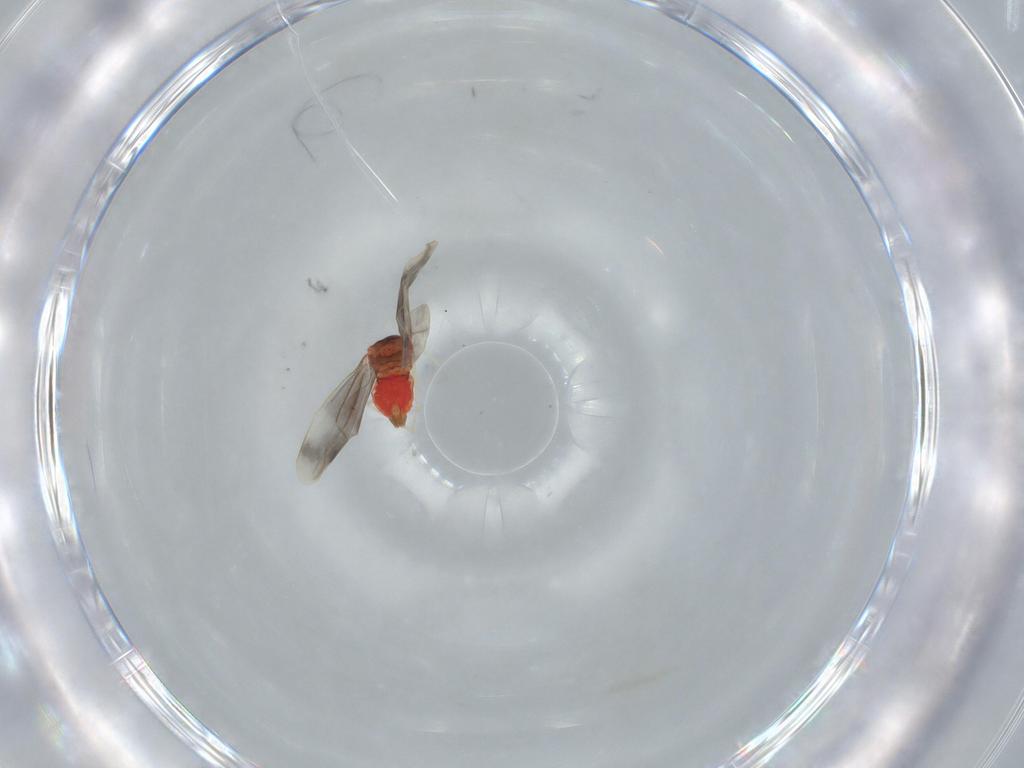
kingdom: Animalia
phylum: Arthropoda
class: Insecta
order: Hemiptera
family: Aleyrodidae
